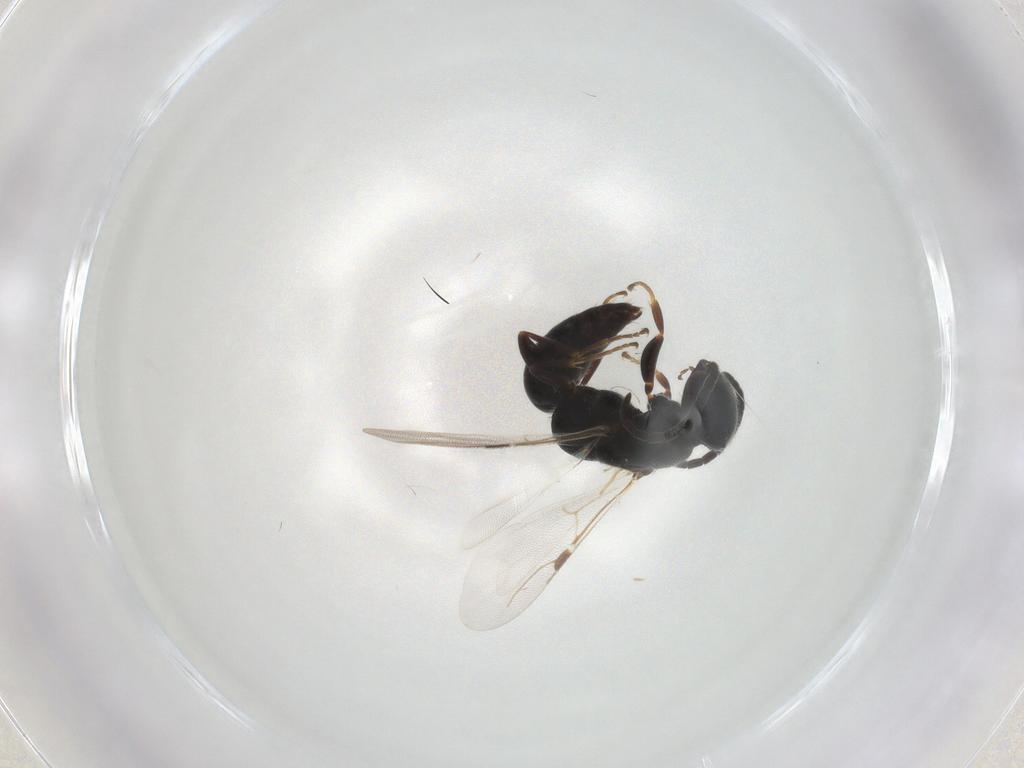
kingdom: Animalia
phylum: Arthropoda
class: Insecta
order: Hymenoptera
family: Bethylidae
